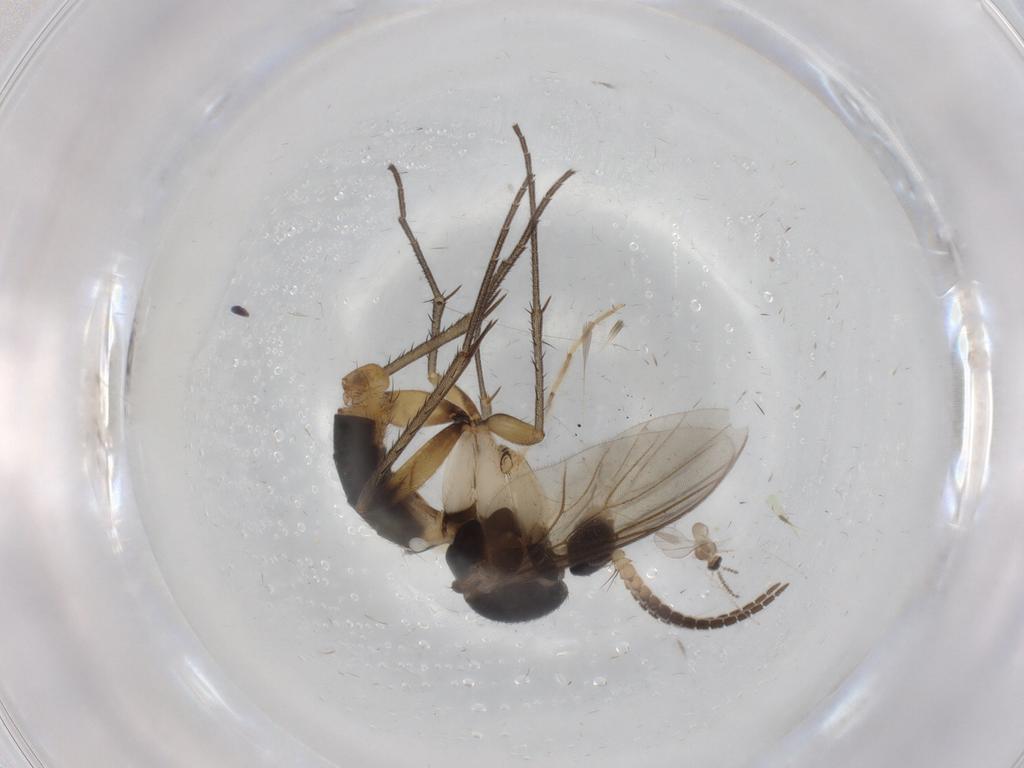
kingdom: Animalia
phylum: Arthropoda
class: Insecta
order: Diptera
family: Mycetophilidae
